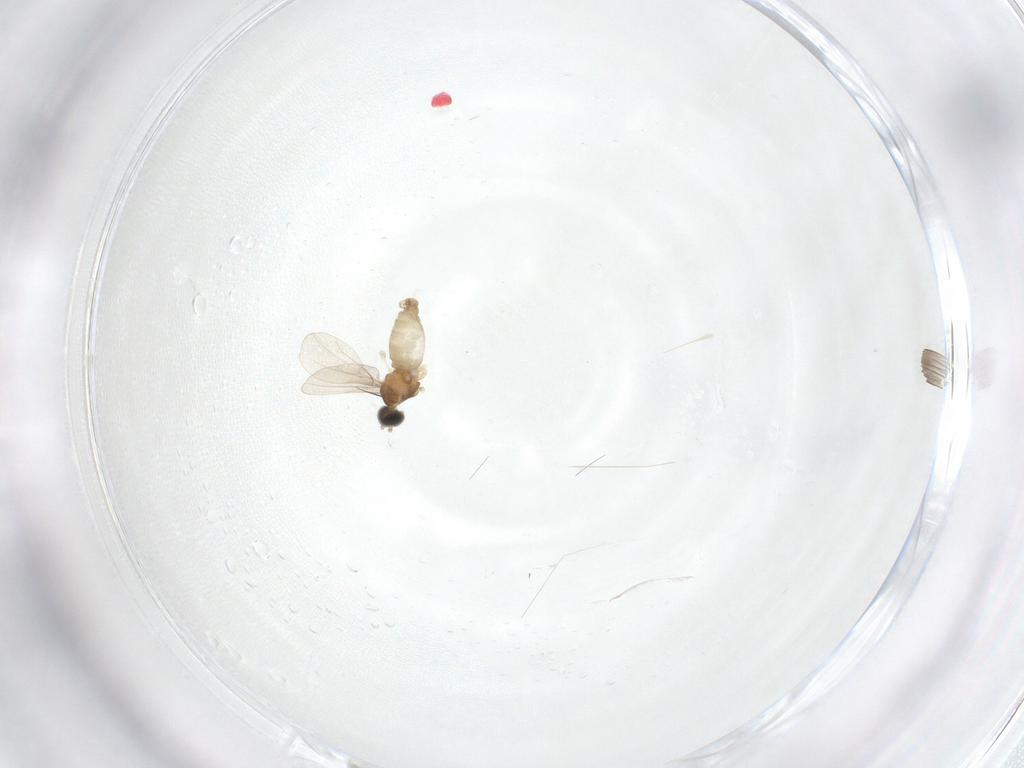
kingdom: Animalia
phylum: Arthropoda
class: Insecta
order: Diptera
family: Cecidomyiidae
